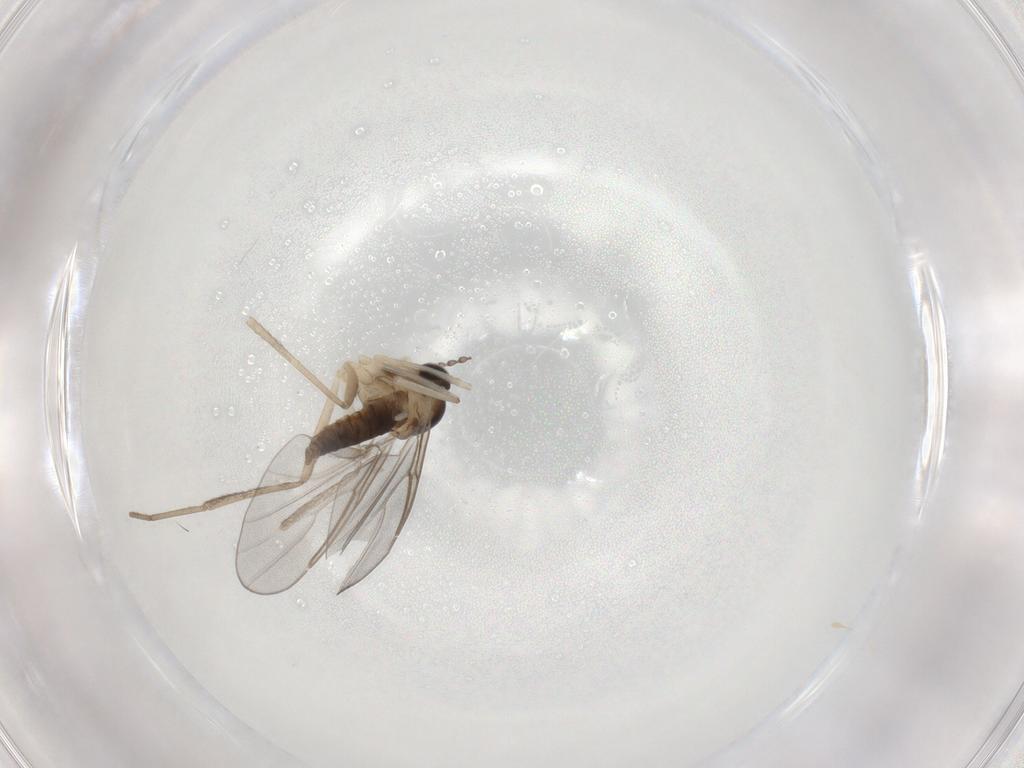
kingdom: Animalia
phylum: Arthropoda
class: Insecta
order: Diptera
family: Cecidomyiidae
